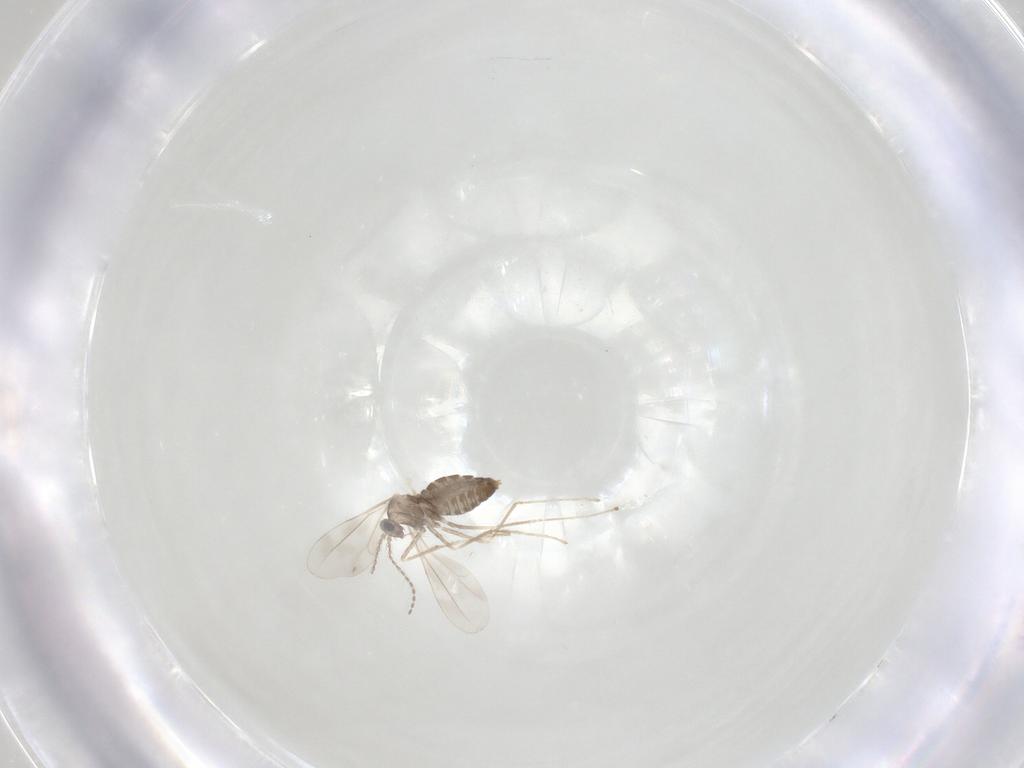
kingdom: Animalia
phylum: Arthropoda
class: Insecta
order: Diptera
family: Cecidomyiidae
